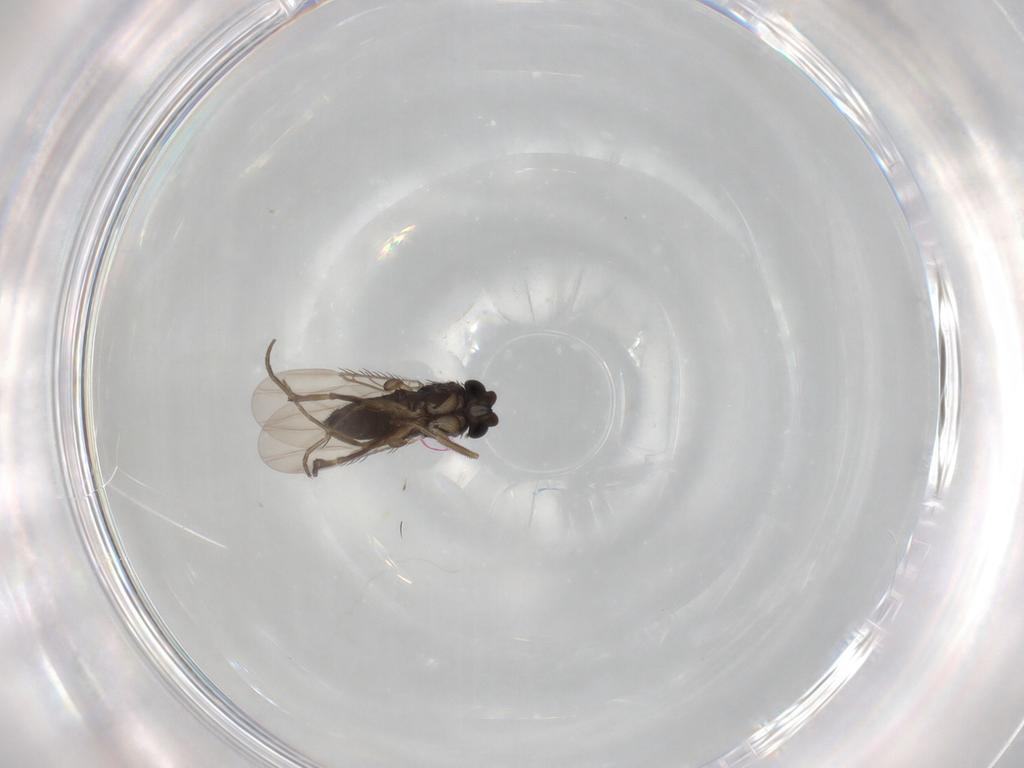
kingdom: Animalia
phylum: Arthropoda
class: Insecta
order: Diptera
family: Phoridae
